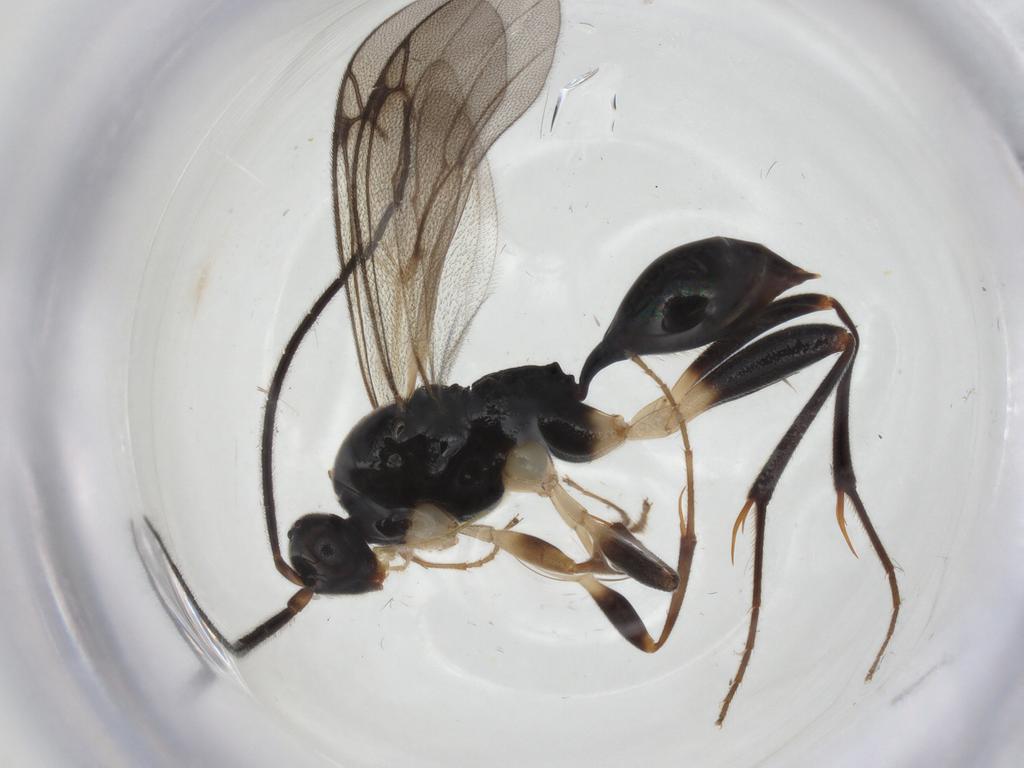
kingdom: Animalia
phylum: Arthropoda
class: Insecta
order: Hymenoptera
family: Proctotrupidae
